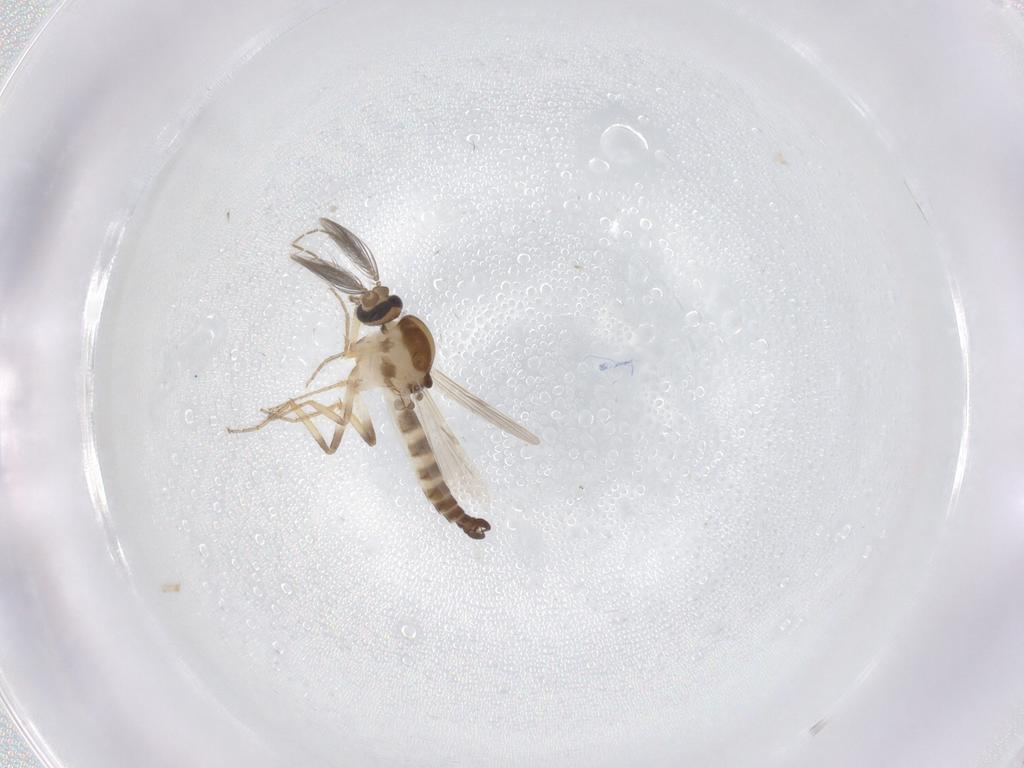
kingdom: Animalia
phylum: Arthropoda
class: Insecta
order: Diptera
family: Ceratopogonidae
